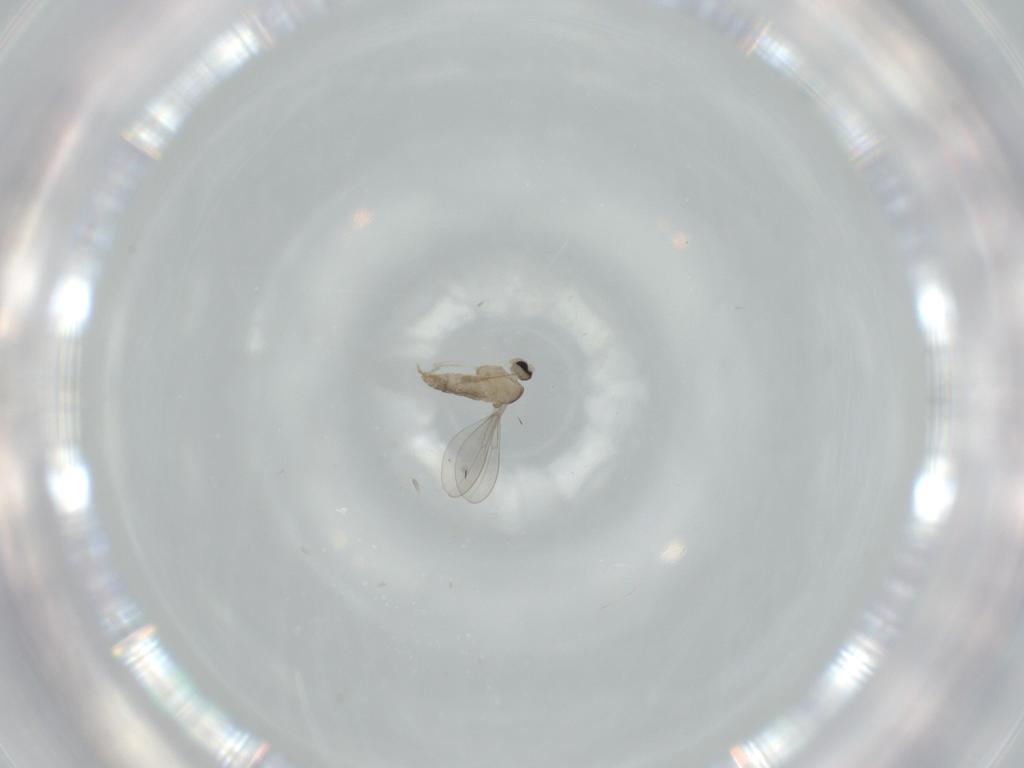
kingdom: Animalia
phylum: Arthropoda
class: Insecta
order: Diptera
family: Cecidomyiidae
